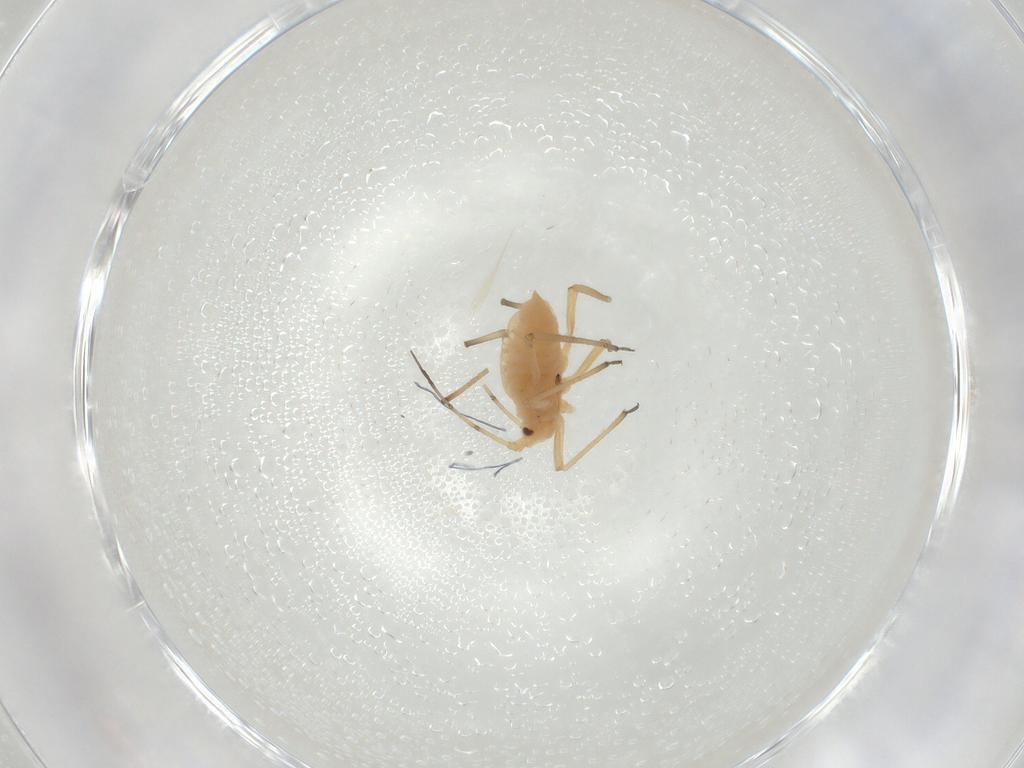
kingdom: Animalia
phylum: Arthropoda
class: Insecta
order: Hemiptera
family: Aphididae
